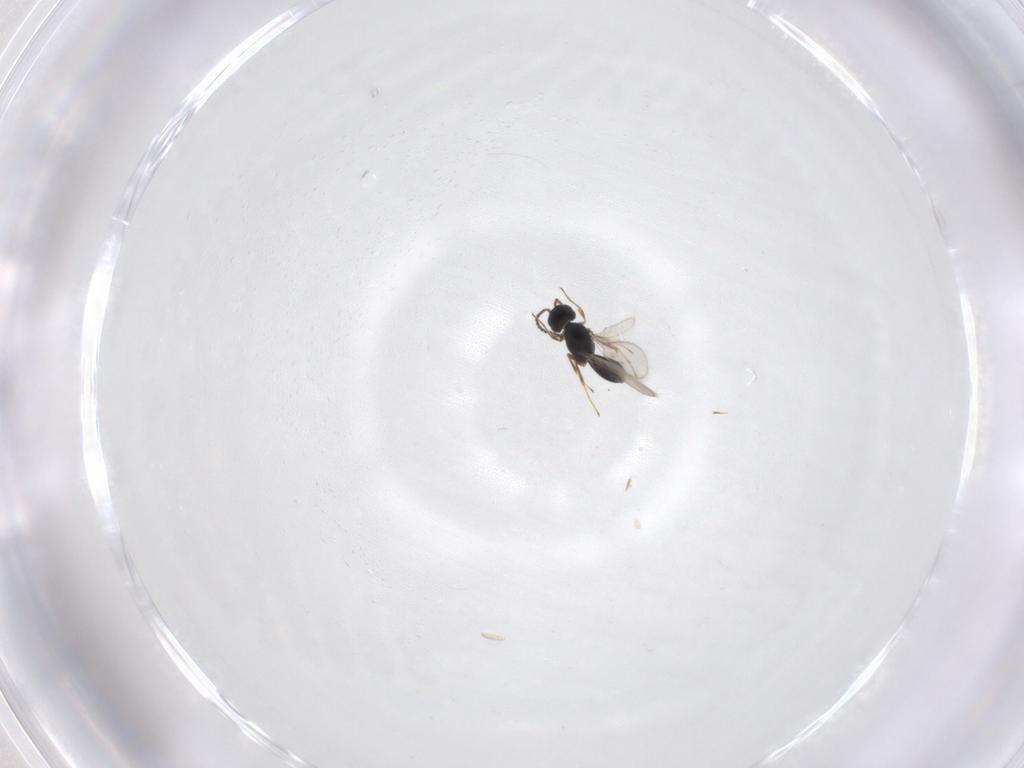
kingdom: Animalia
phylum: Arthropoda
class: Insecta
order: Hymenoptera
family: Scelionidae
